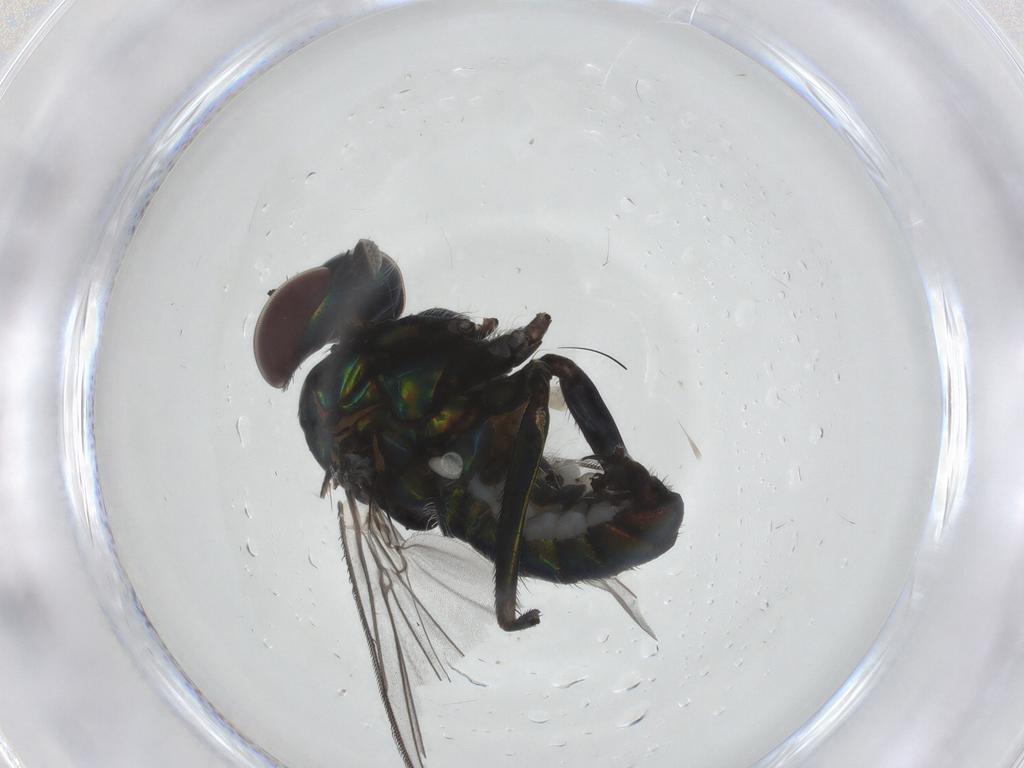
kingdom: Animalia
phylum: Arthropoda
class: Insecta
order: Diptera
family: Dolichopodidae
